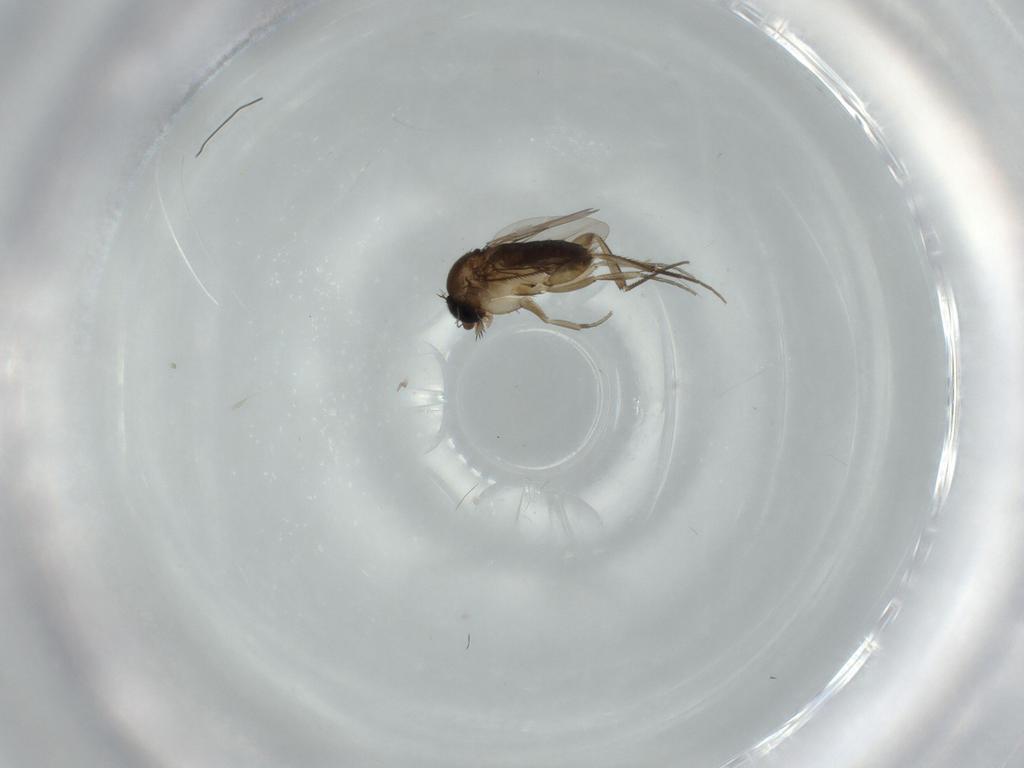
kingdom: Animalia
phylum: Arthropoda
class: Insecta
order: Diptera
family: Phoridae
